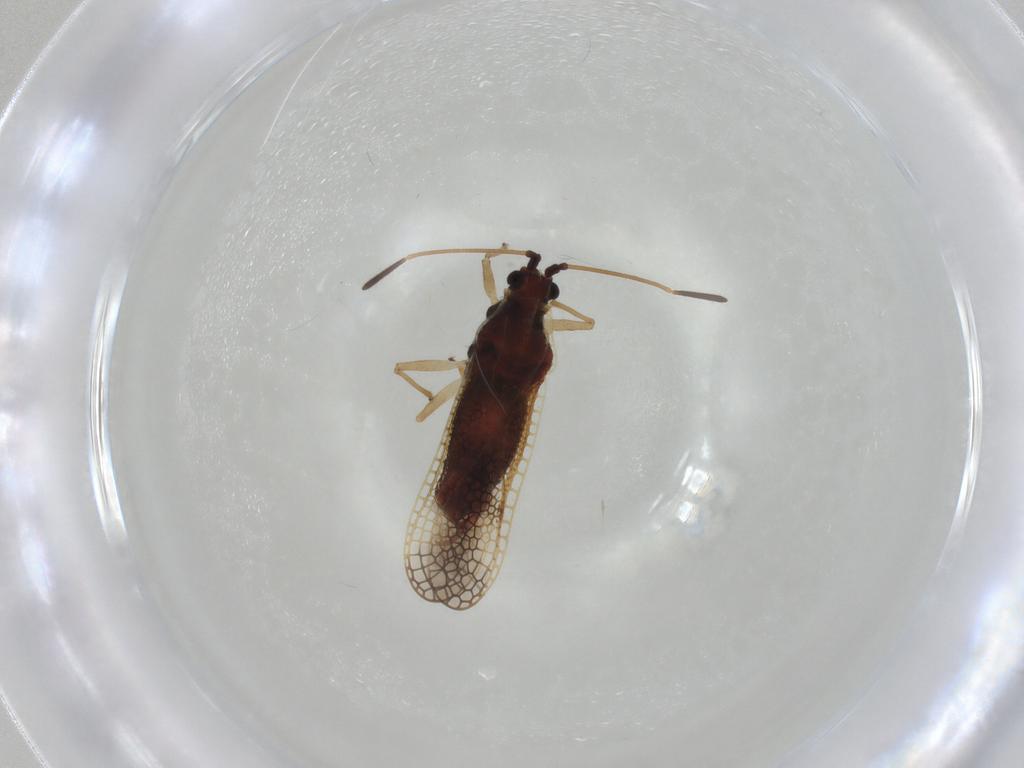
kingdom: Animalia
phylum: Arthropoda
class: Insecta
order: Hemiptera
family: Tingidae
